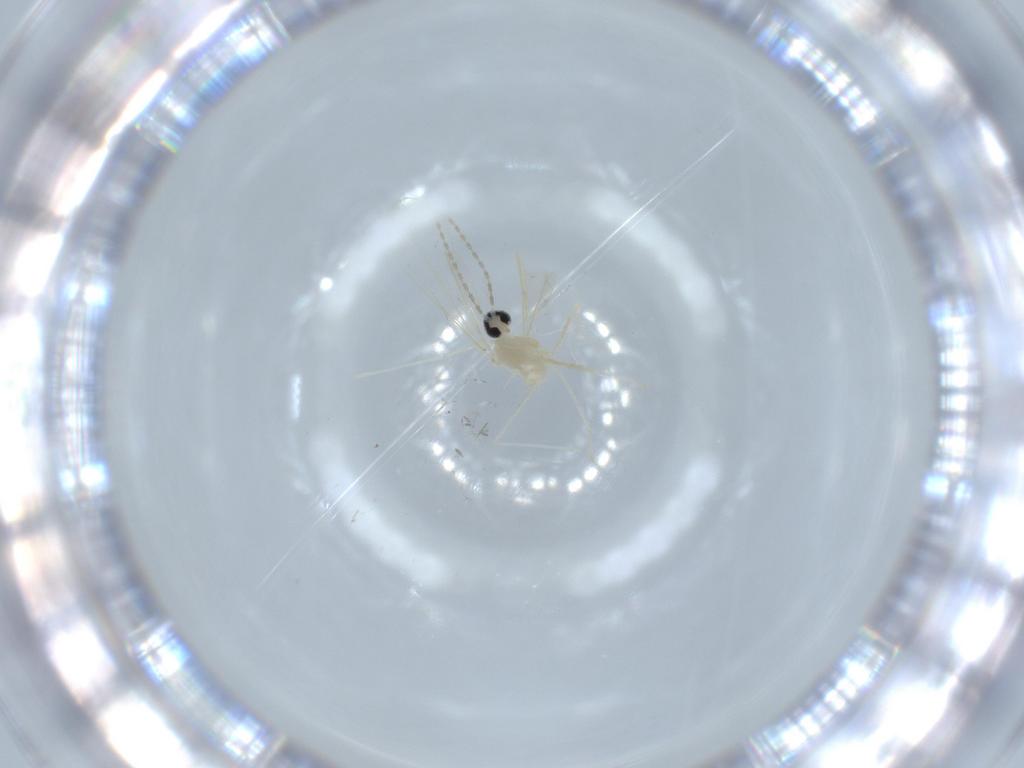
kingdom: Animalia
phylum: Arthropoda
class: Insecta
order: Diptera
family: Cecidomyiidae
